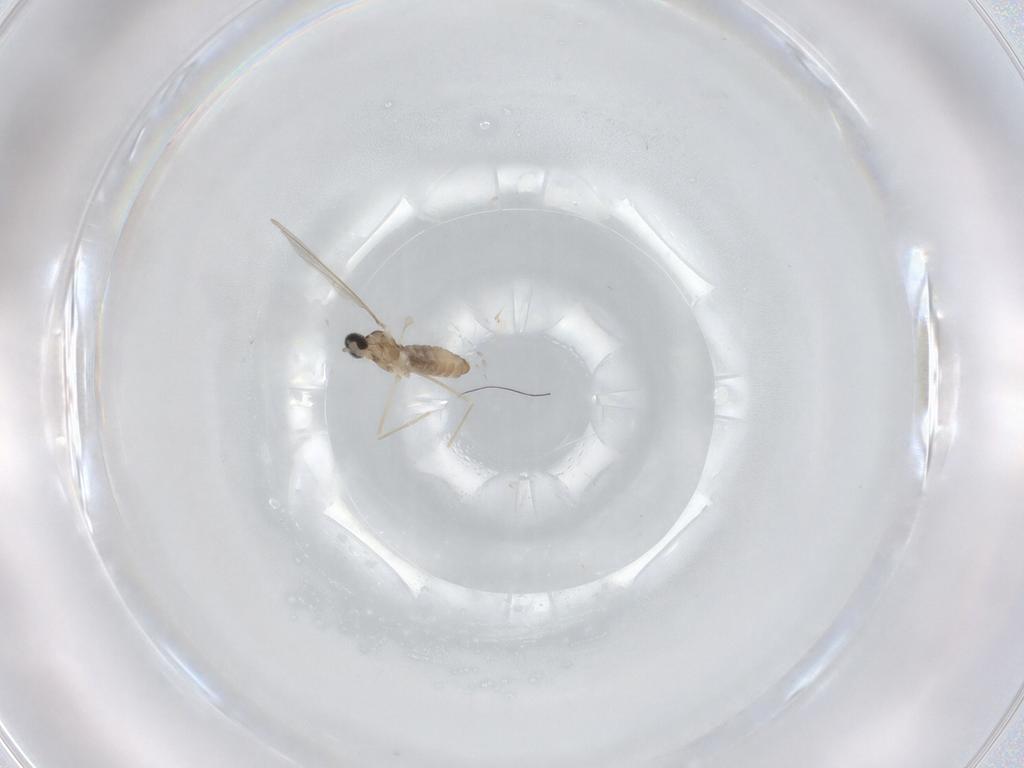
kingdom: Animalia
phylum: Arthropoda
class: Insecta
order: Diptera
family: Cecidomyiidae
